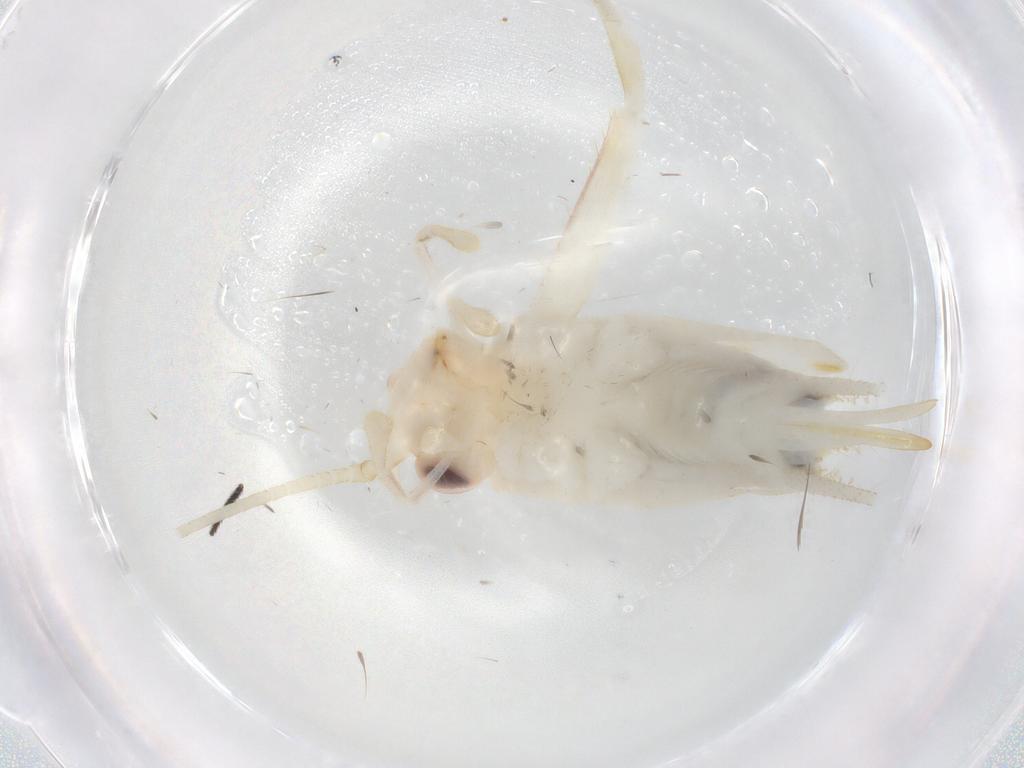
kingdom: Animalia
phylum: Arthropoda
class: Insecta
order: Orthoptera
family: Trigonidiidae
